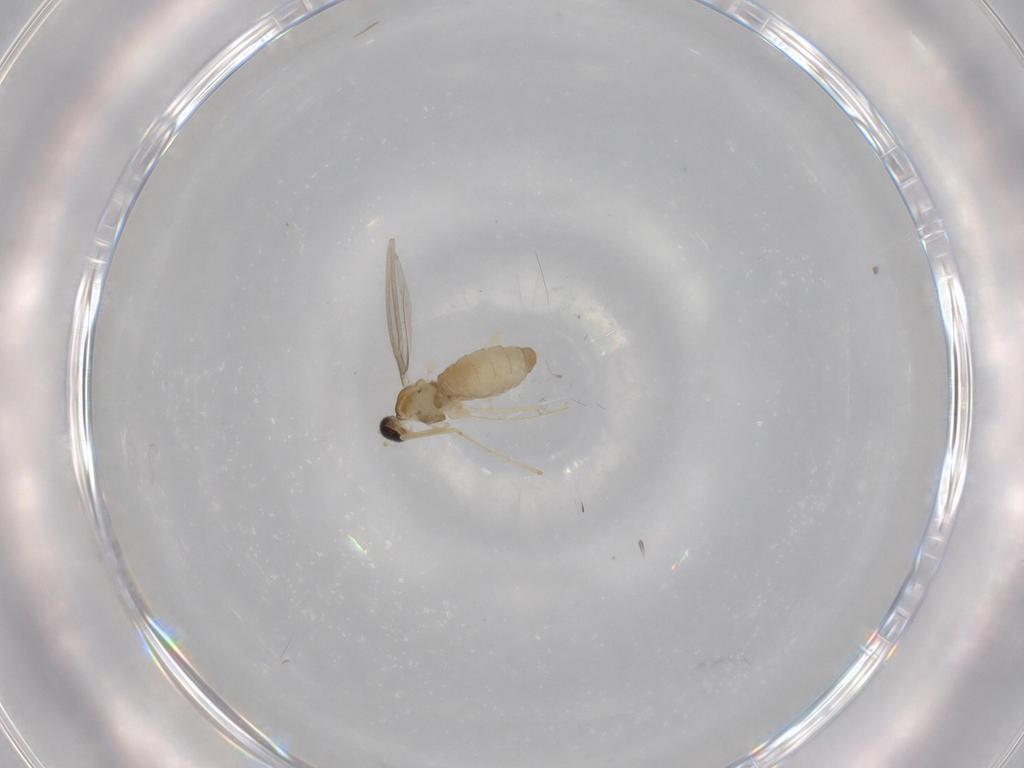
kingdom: Animalia
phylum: Arthropoda
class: Insecta
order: Diptera
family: Cecidomyiidae
